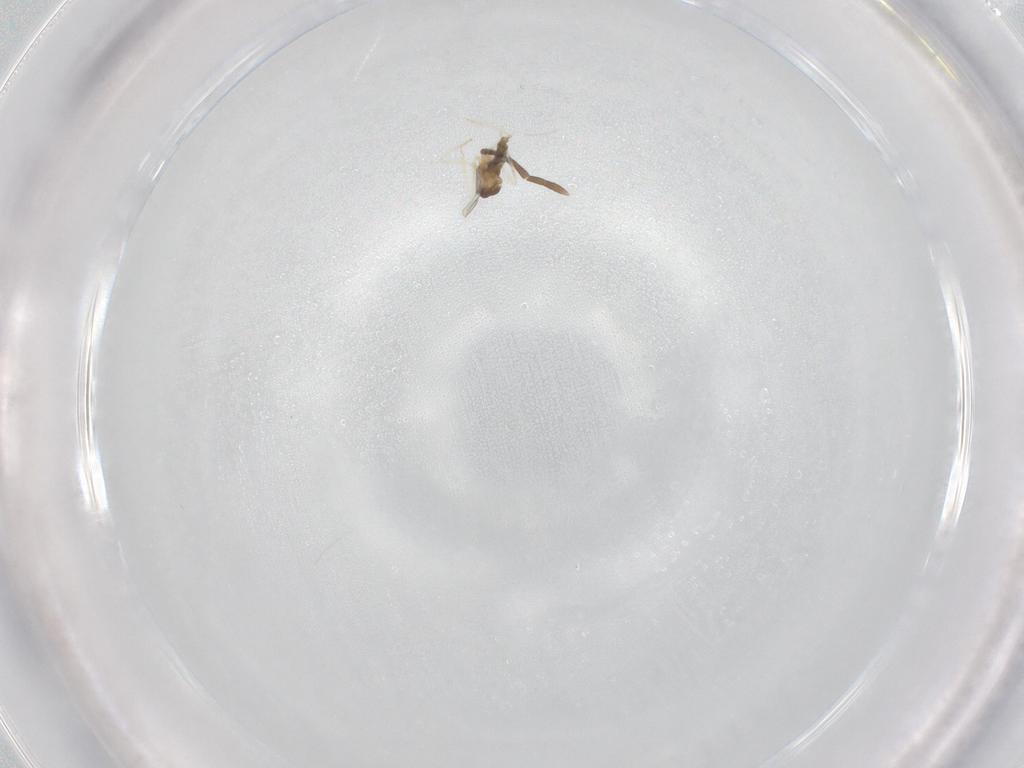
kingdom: Animalia
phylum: Arthropoda
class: Insecta
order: Diptera
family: Cecidomyiidae
